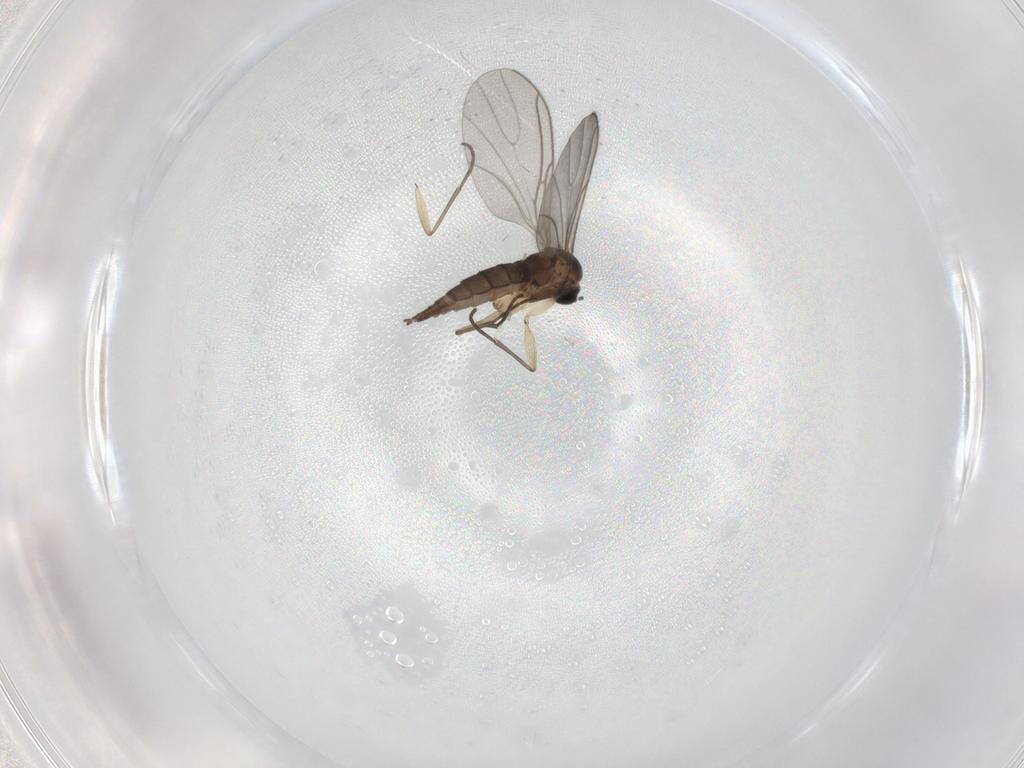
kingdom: Animalia
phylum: Arthropoda
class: Insecta
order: Diptera
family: Sciaridae
